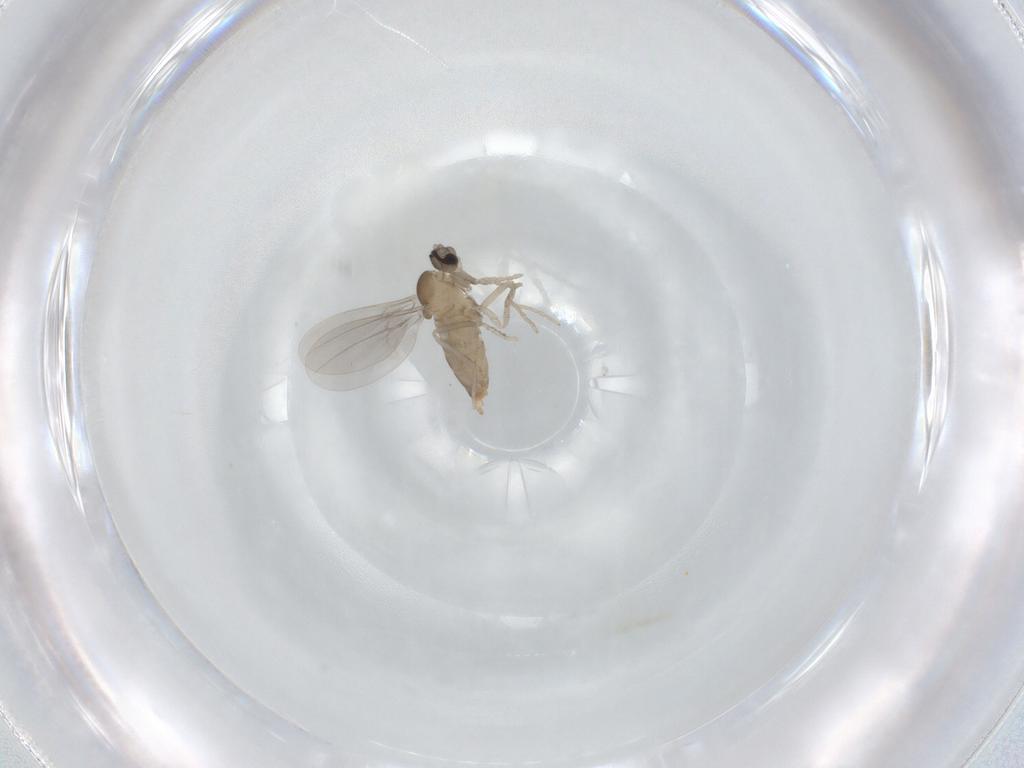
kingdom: Animalia
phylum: Arthropoda
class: Insecta
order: Diptera
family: Cecidomyiidae
